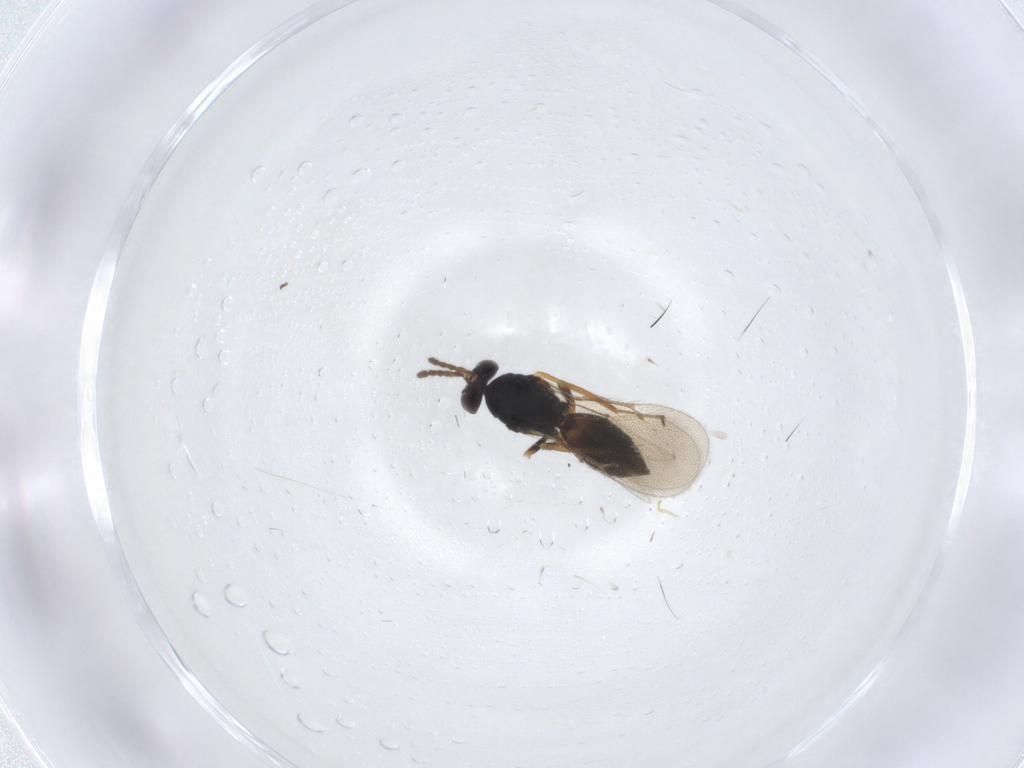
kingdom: Animalia
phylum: Arthropoda
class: Insecta
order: Hymenoptera
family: Eulophidae
